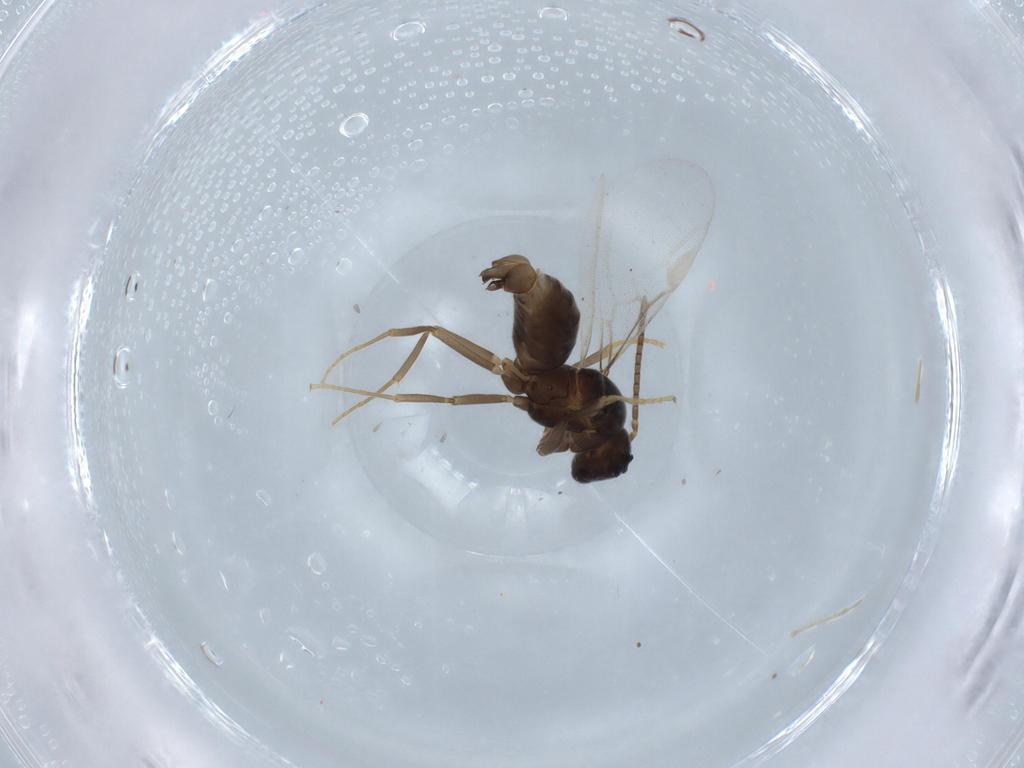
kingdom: Animalia
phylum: Arthropoda
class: Insecta
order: Hymenoptera
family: Formicidae
